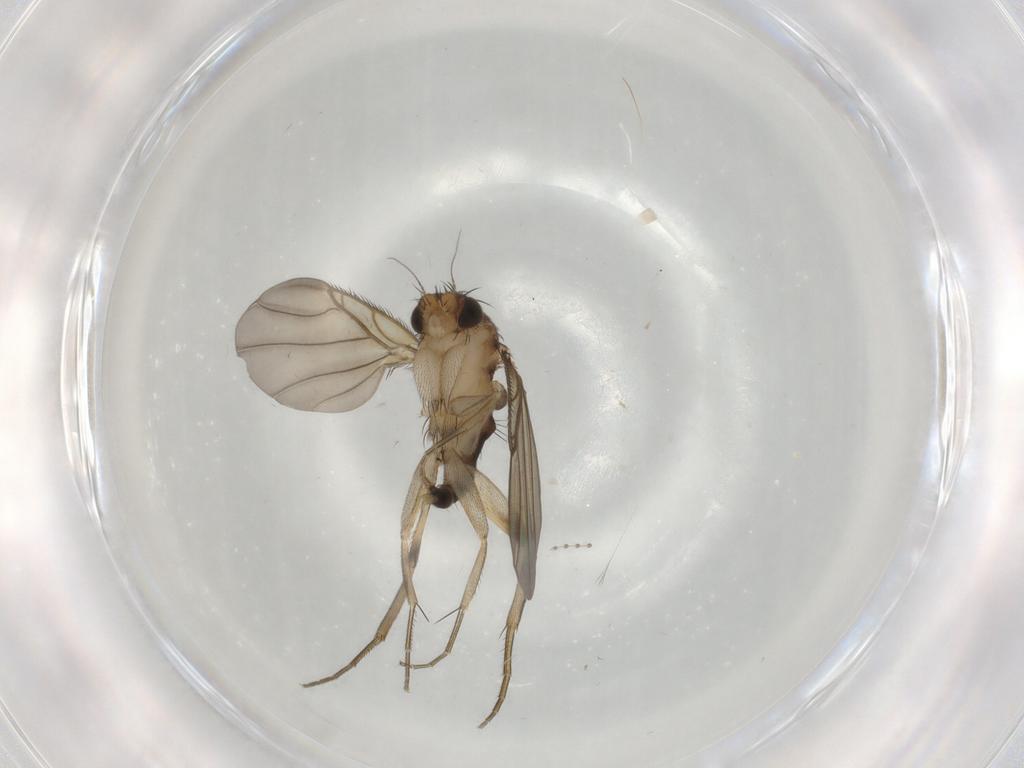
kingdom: Animalia
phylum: Arthropoda
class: Insecta
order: Diptera
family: Phoridae
